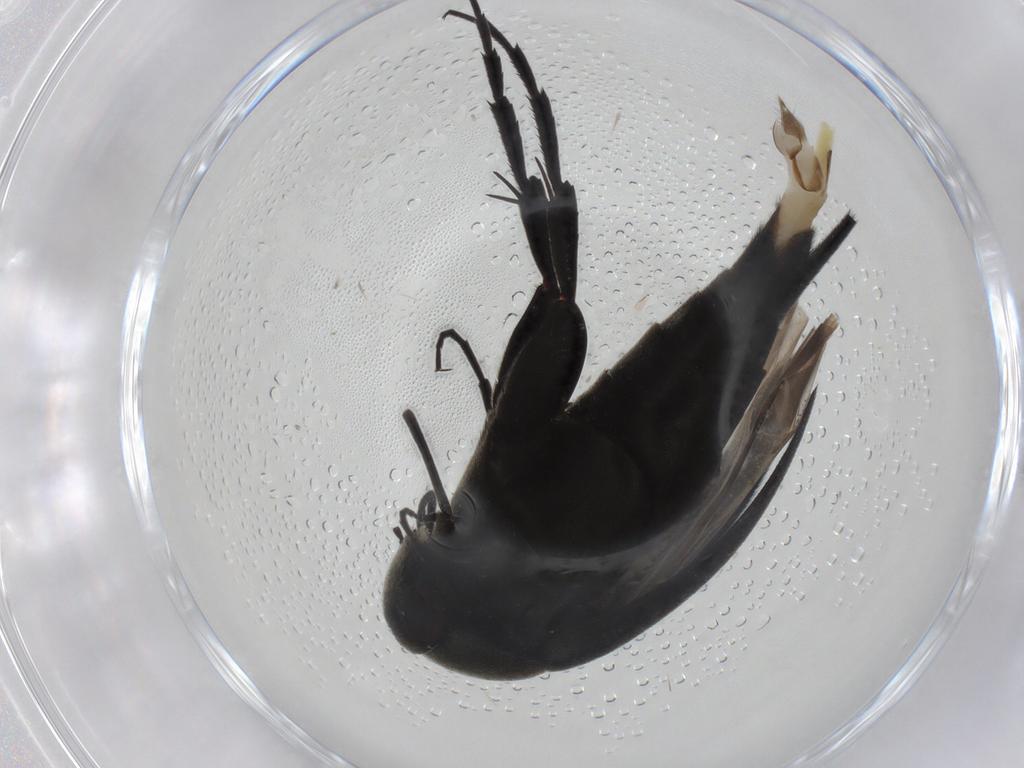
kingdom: Animalia
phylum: Arthropoda
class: Insecta
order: Coleoptera
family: Mordellidae
